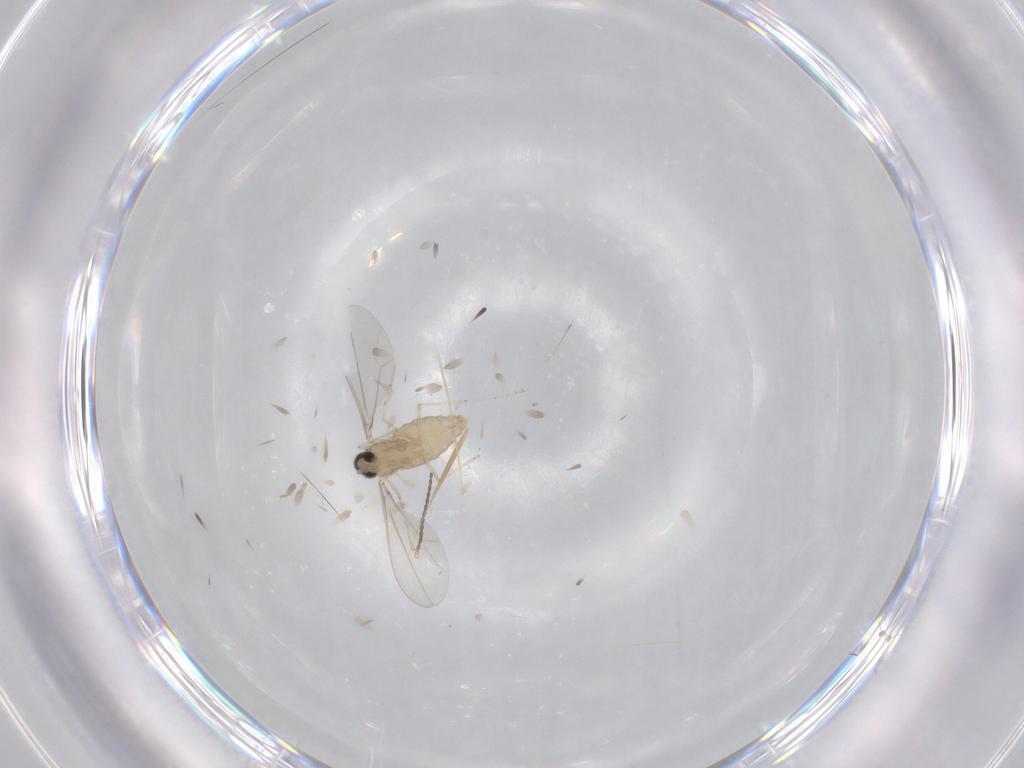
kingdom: Animalia
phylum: Arthropoda
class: Insecta
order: Diptera
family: Cecidomyiidae
